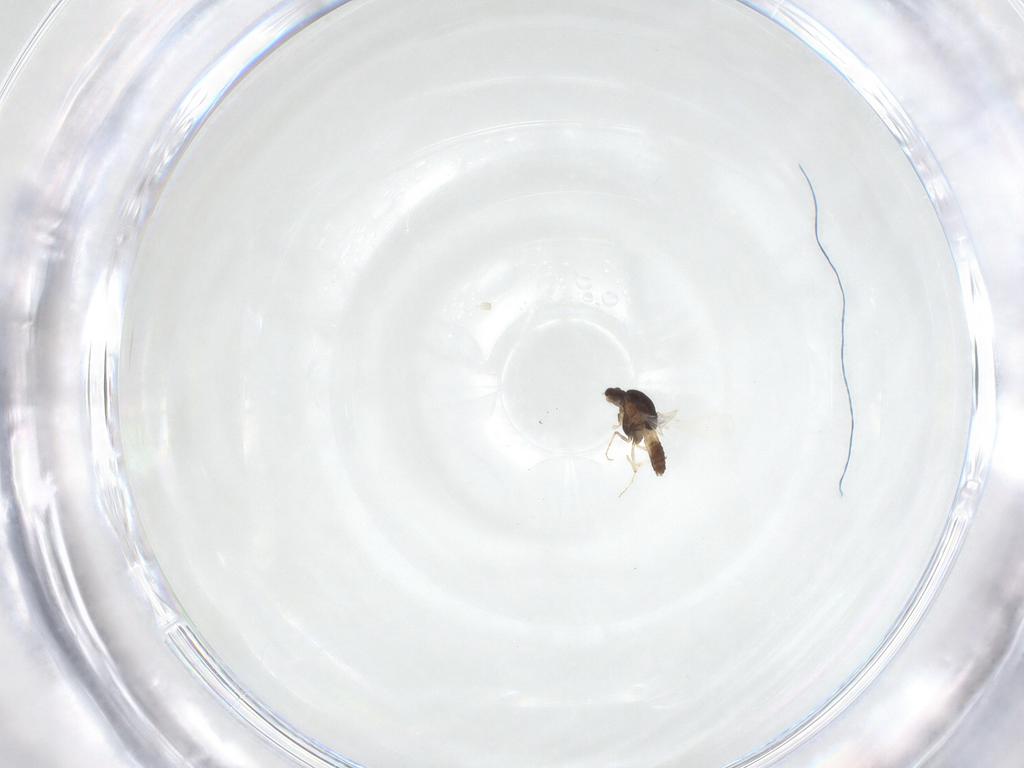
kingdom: Animalia
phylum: Arthropoda
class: Insecta
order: Diptera
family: Chironomidae
